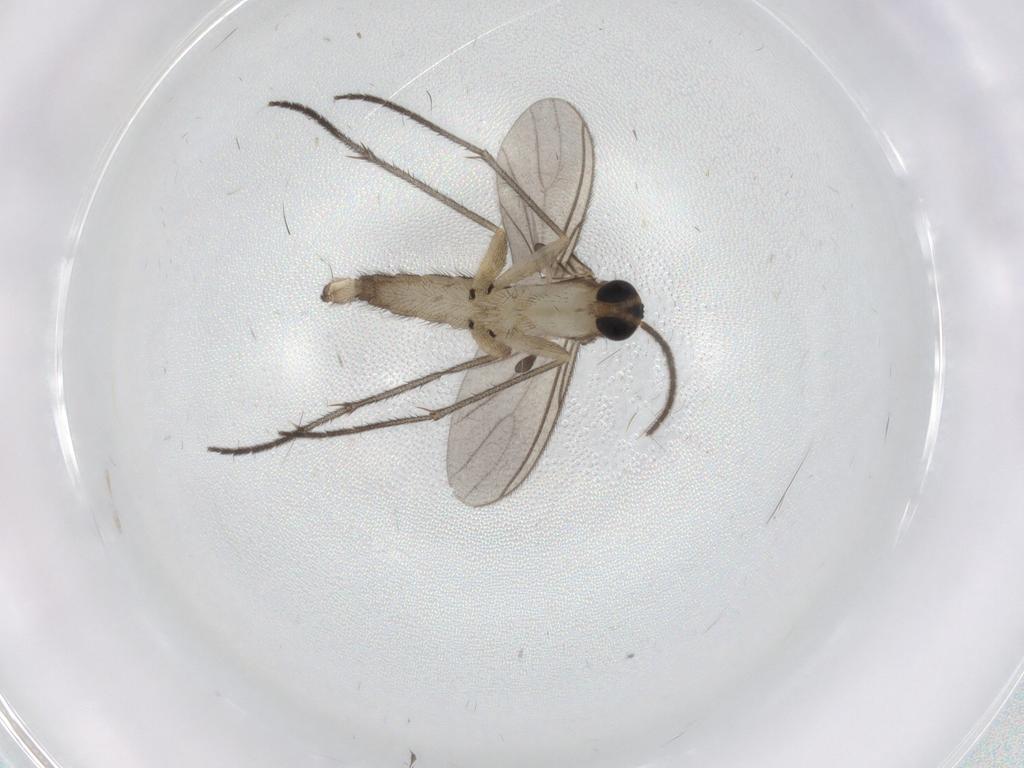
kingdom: Animalia
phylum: Arthropoda
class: Insecta
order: Diptera
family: Sciaridae
